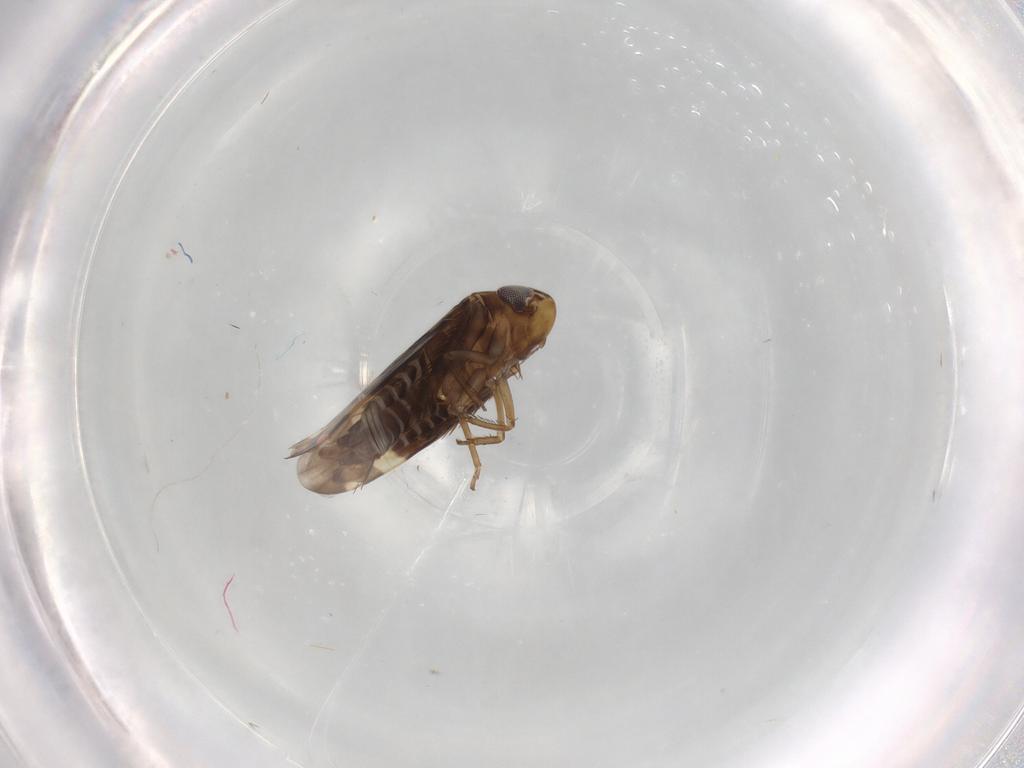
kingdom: Animalia
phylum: Arthropoda
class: Insecta
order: Hemiptera
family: Cicadellidae
